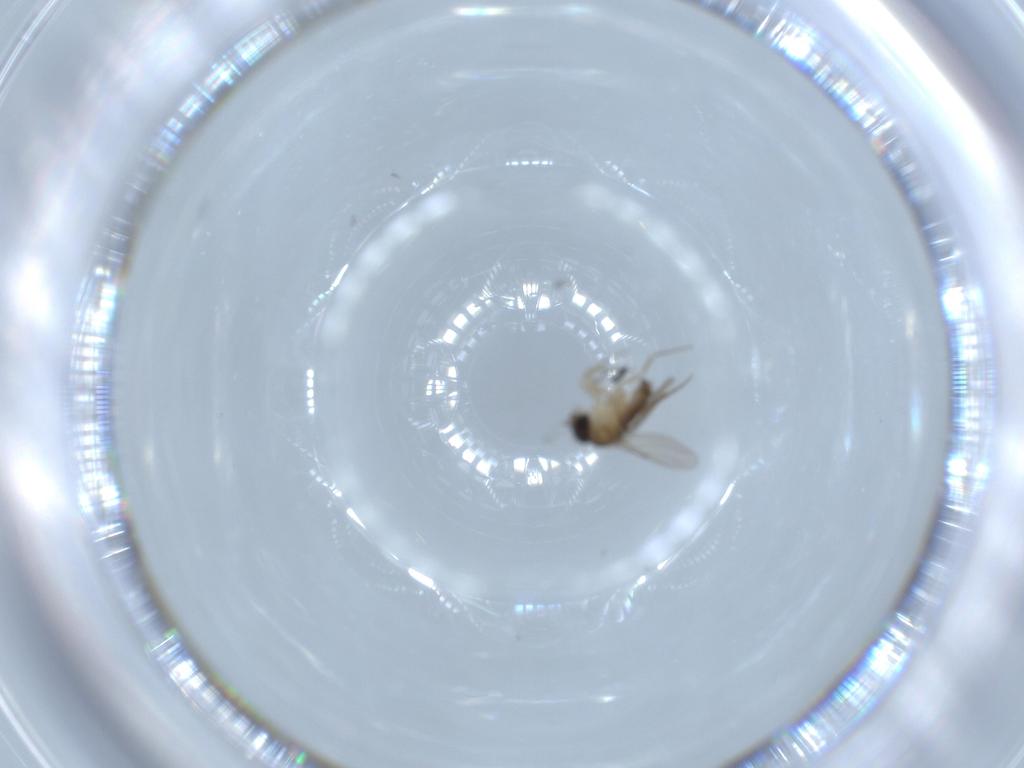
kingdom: Animalia
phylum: Arthropoda
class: Insecta
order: Diptera
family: Phoridae
